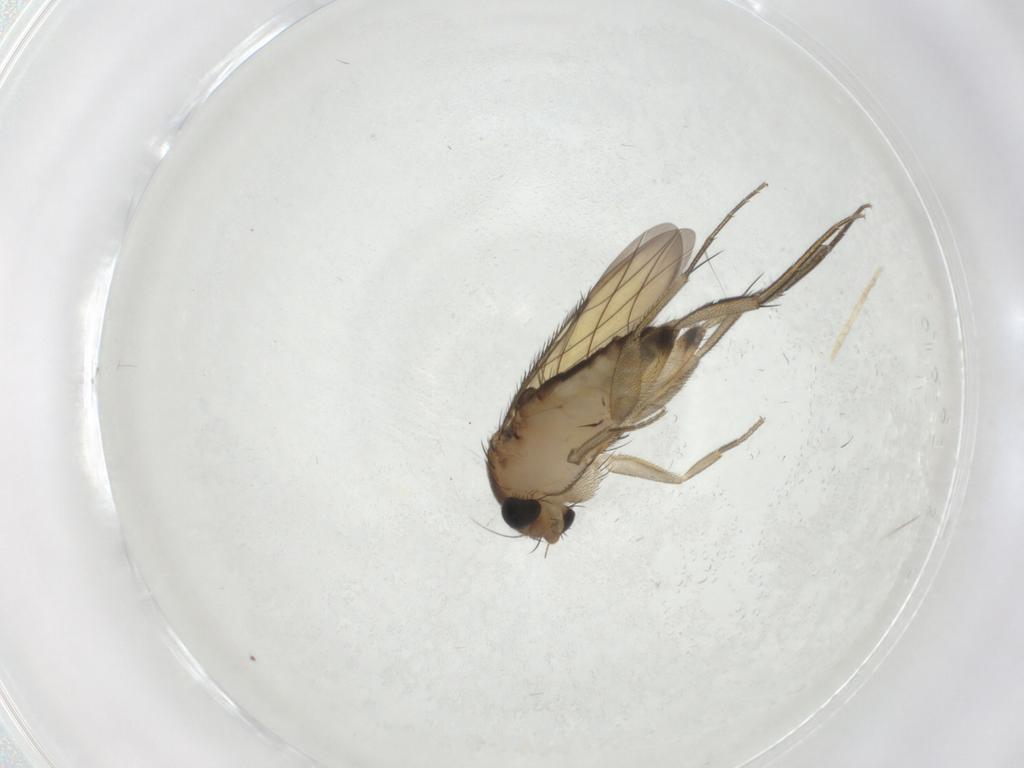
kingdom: Animalia
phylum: Arthropoda
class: Insecta
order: Diptera
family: Phoridae
